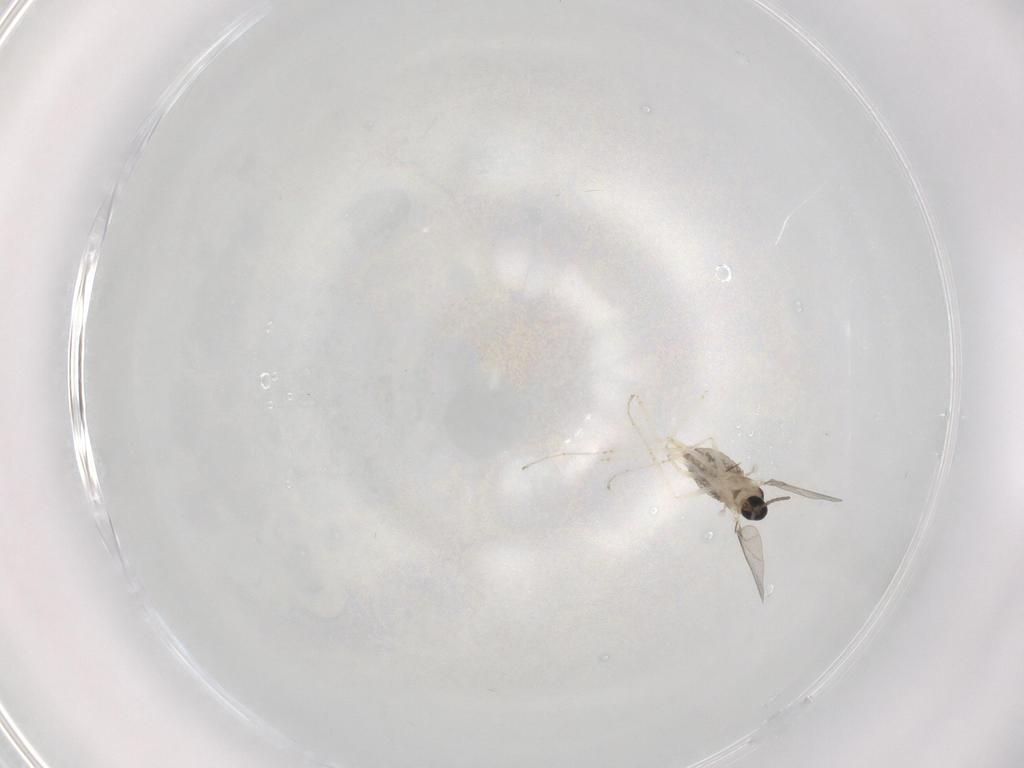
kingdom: Animalia
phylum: Arthropoda
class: Insecta
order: Diptera
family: Cecidomyiidae
